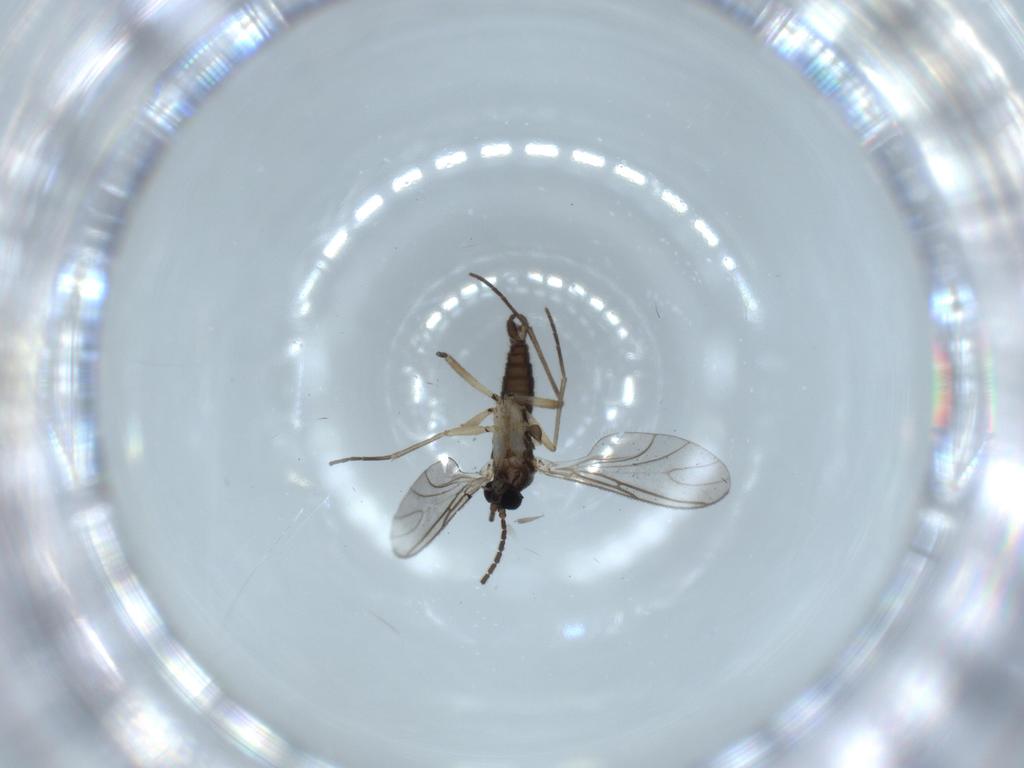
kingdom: Animalia
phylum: Arthropoda
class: Insecta
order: Diptera
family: Sciaridae
